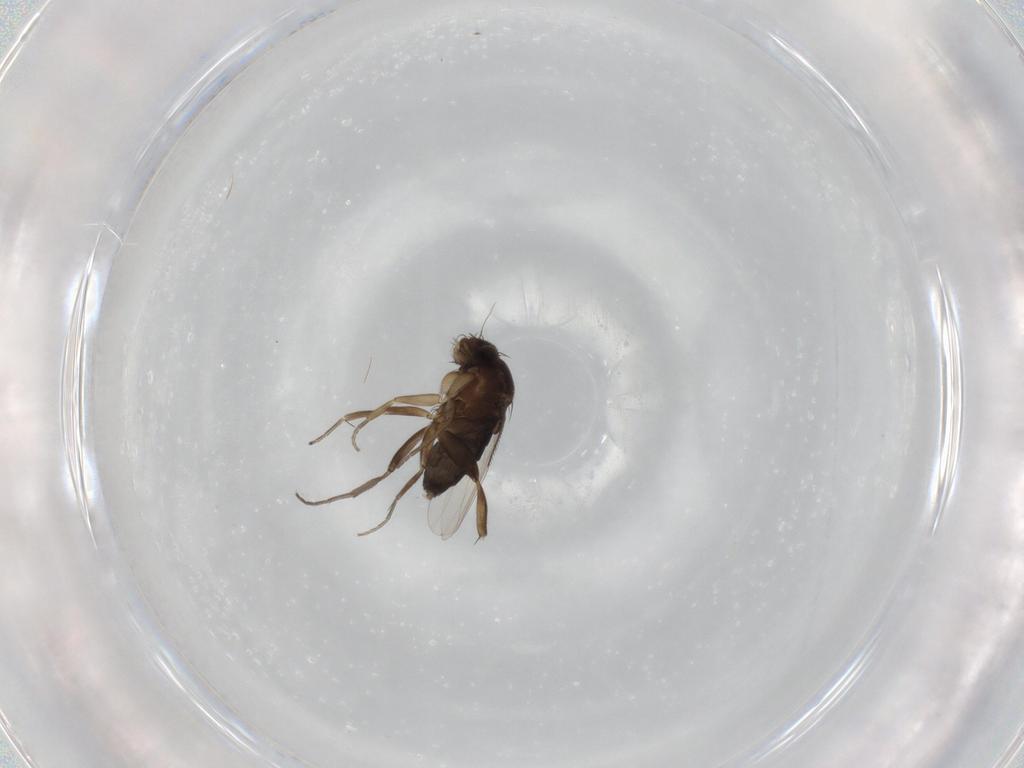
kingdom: Animalia
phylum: Arthropoda
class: Insecta
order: Diptera
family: Phoridae
